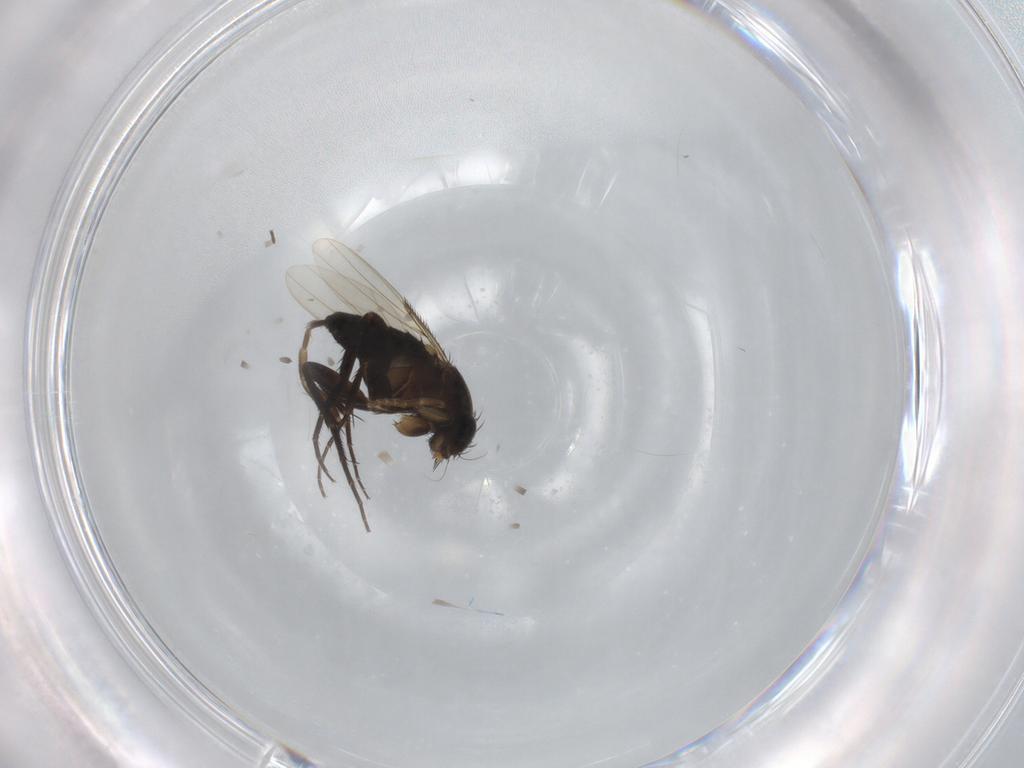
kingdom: Animalia
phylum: Arthropoda
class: Insecta
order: Diptera
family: Phoridae
